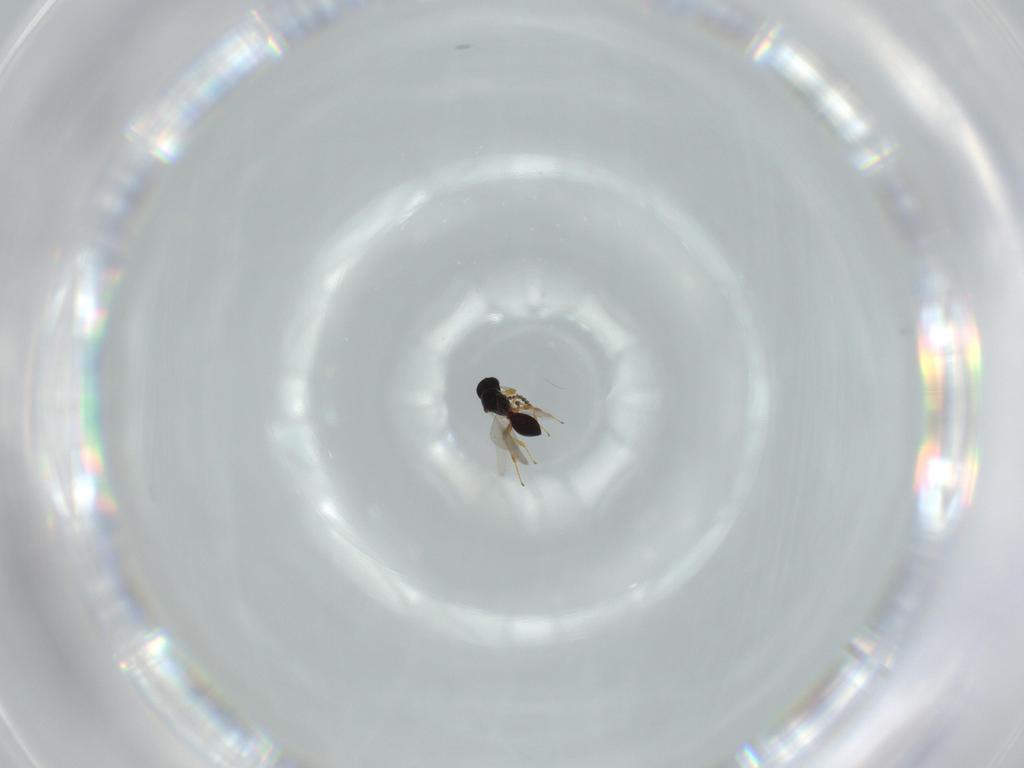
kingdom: Animalia
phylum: Arthropoda
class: Insecta
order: Hymenoptera
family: Platygastridae
